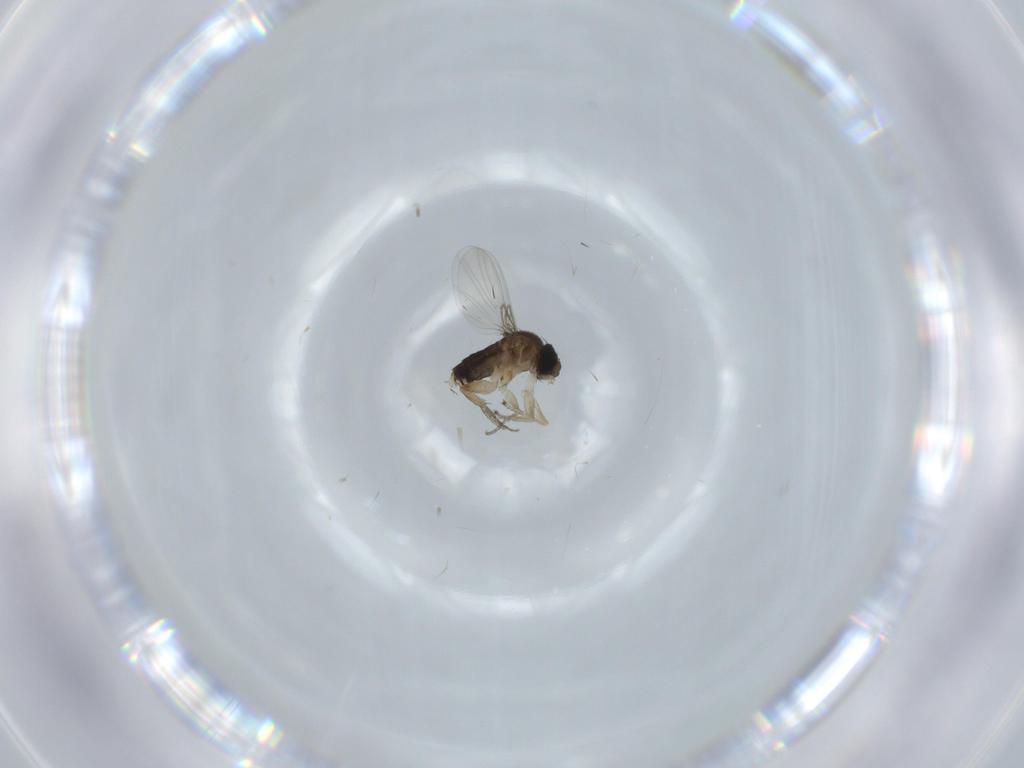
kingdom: Animalia
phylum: Arthropoda
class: Insecta
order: Diptera
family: Phoridae
